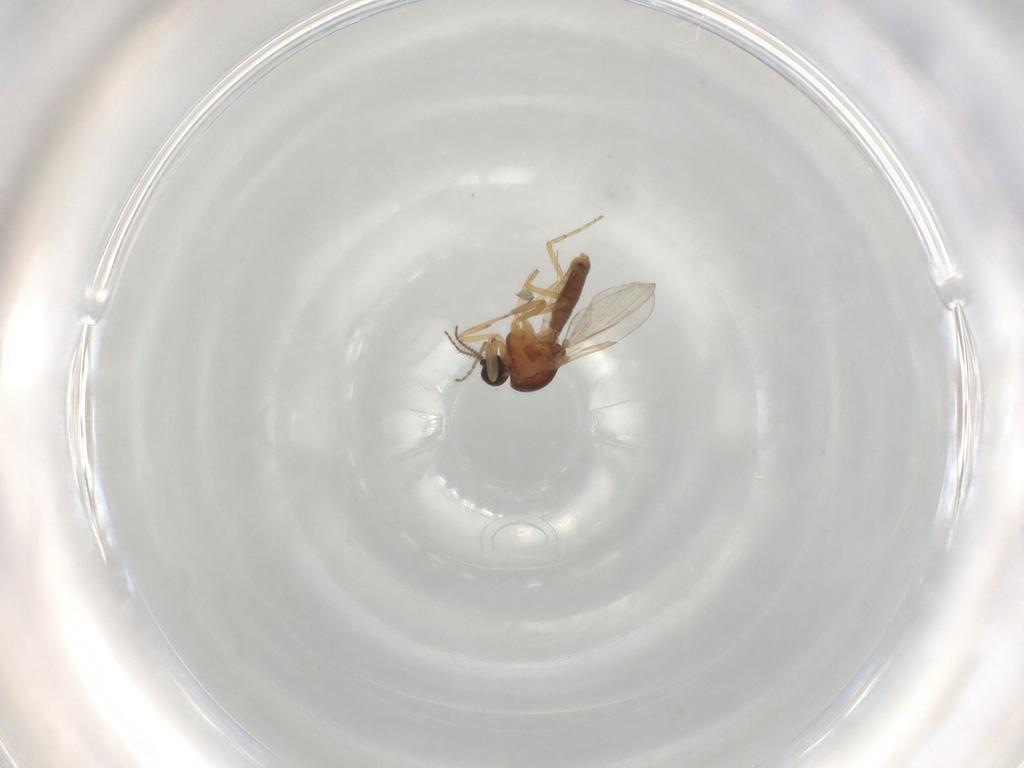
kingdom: Animalia
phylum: Arthropoda
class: Insecta
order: Diptera
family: Ceratopogonidae
